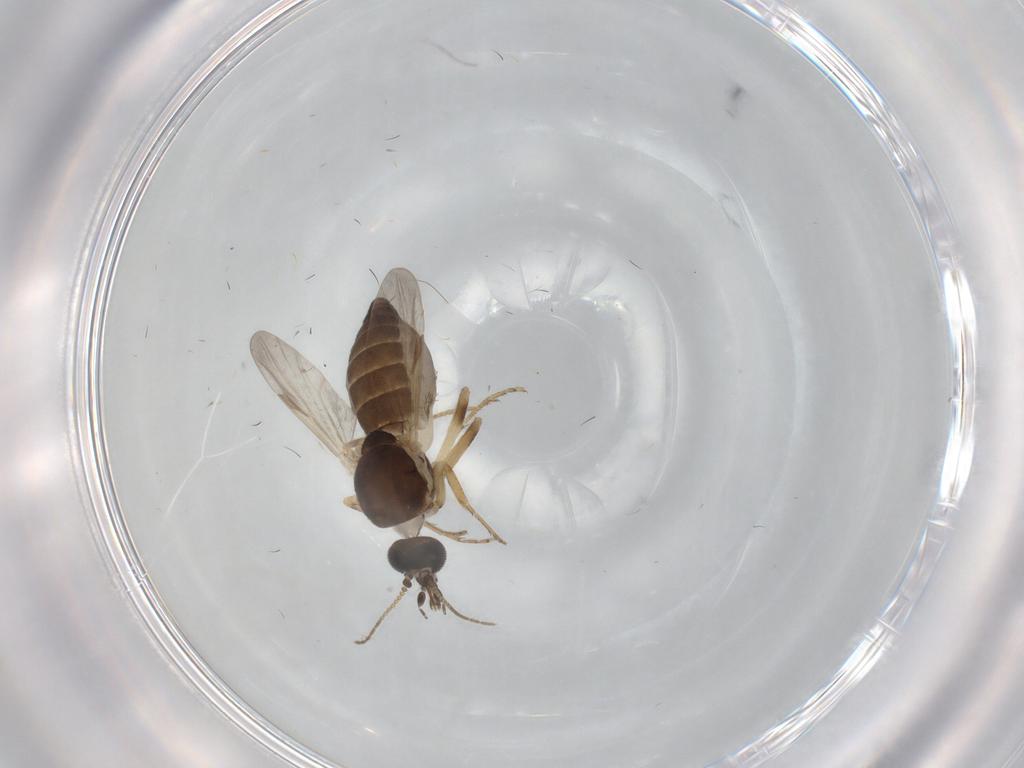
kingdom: Animalia
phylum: Arthropoda
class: Insecta
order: Diptera
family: Ceratopogonidae
